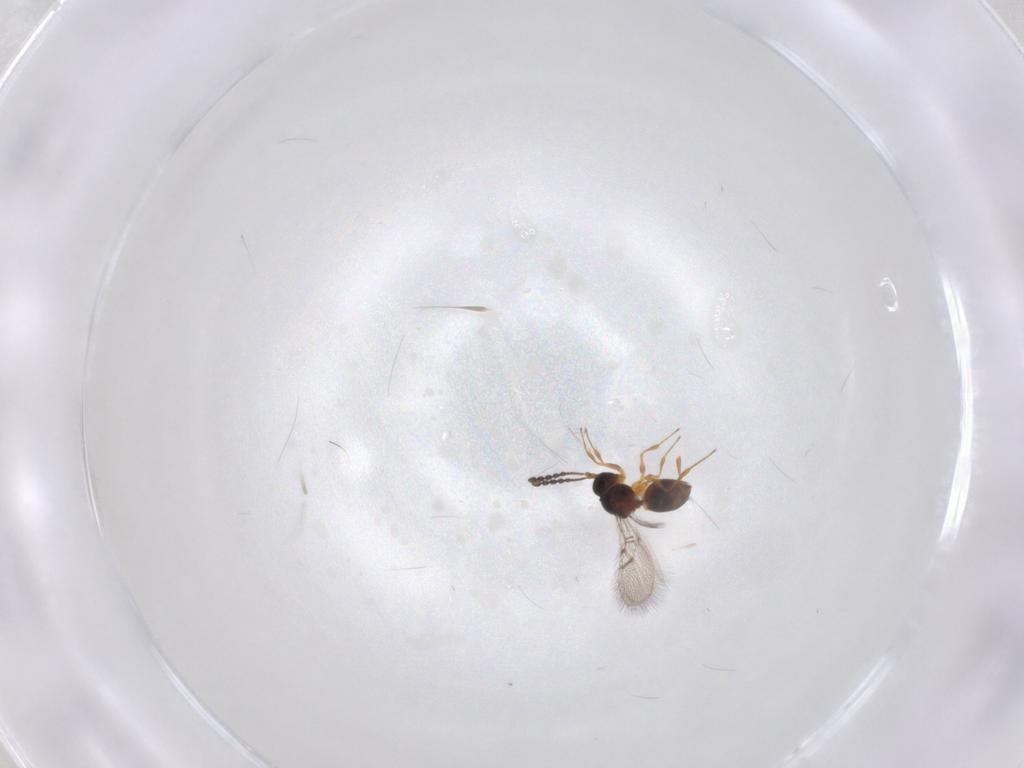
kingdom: Animalia
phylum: Arthropoda
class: Insecta
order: Hymenoptera
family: Figitidae
